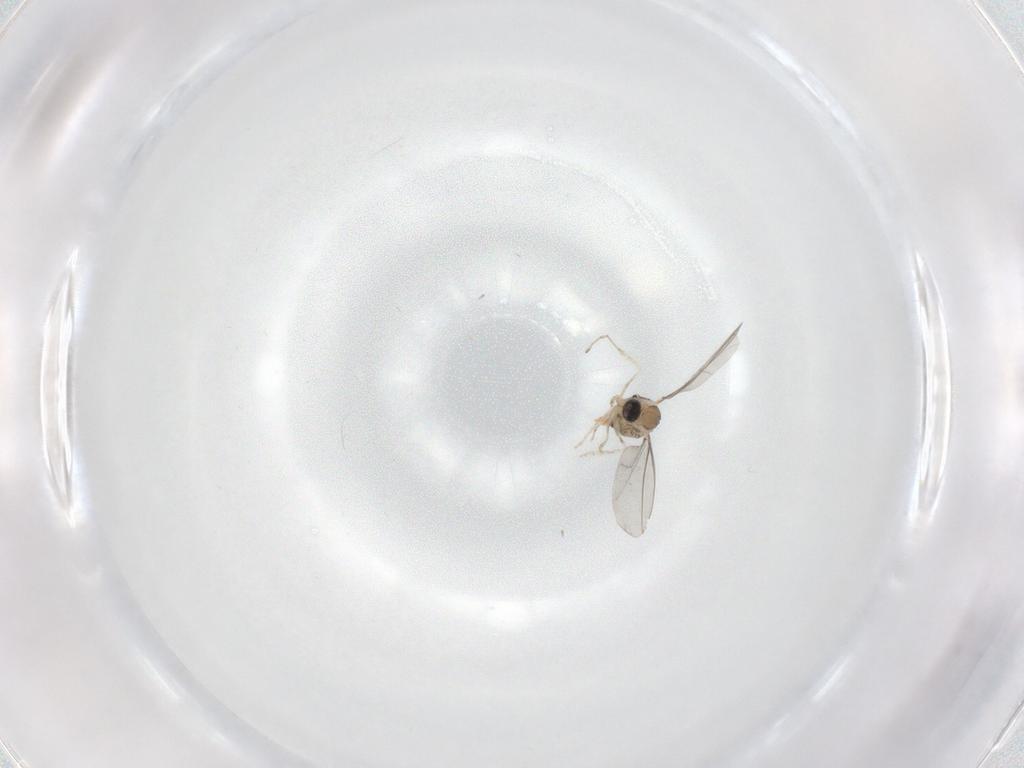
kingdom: Animalia
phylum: Arthropoda
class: Insecta
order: Diptera
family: Cecidomyiidae
